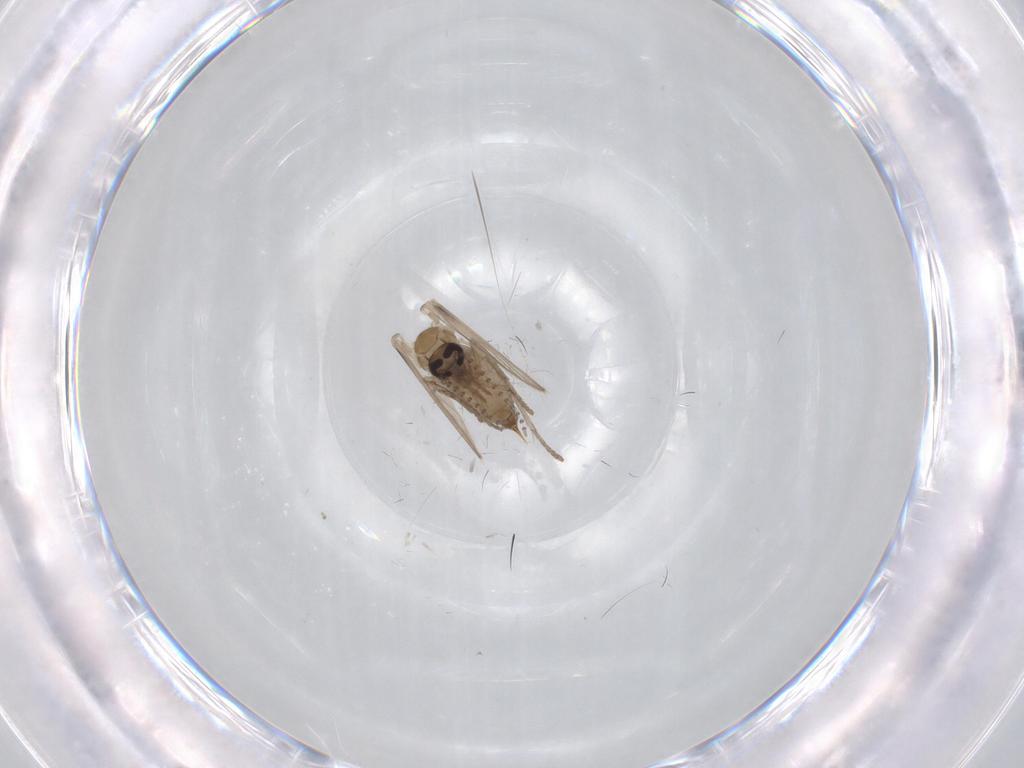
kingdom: Animalia
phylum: Arthropoda
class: Insecta
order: Diptera
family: Psychodidae
